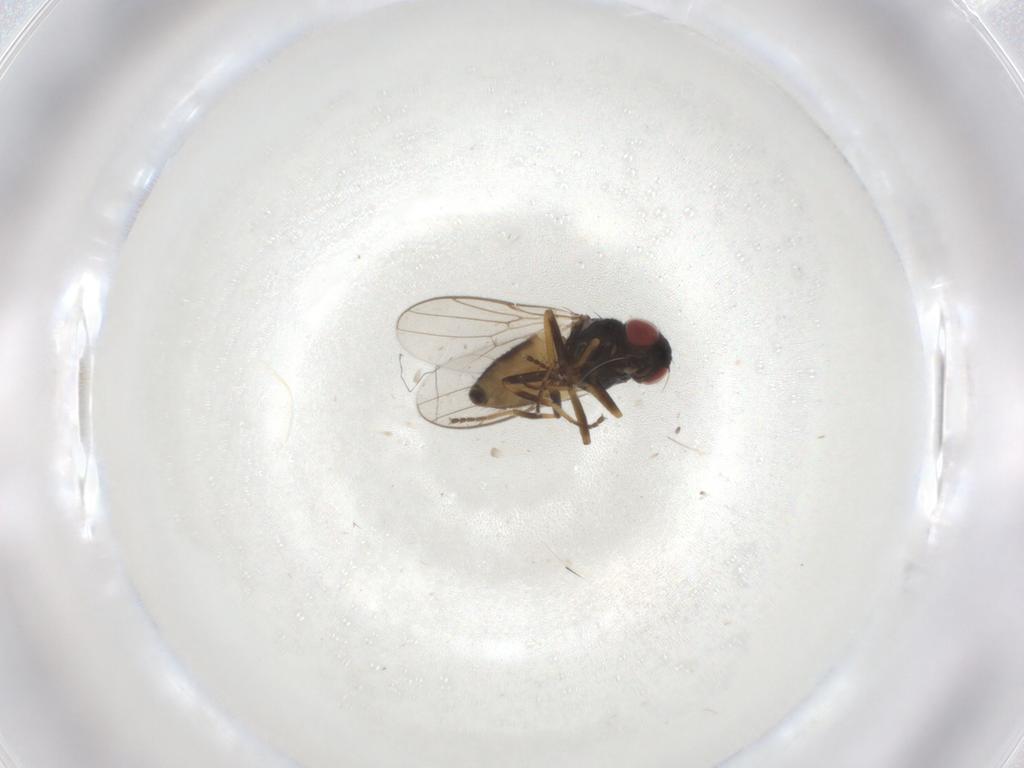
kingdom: Animalia
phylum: Arthropoda
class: Insecta
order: Diptera
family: Chloropidae
